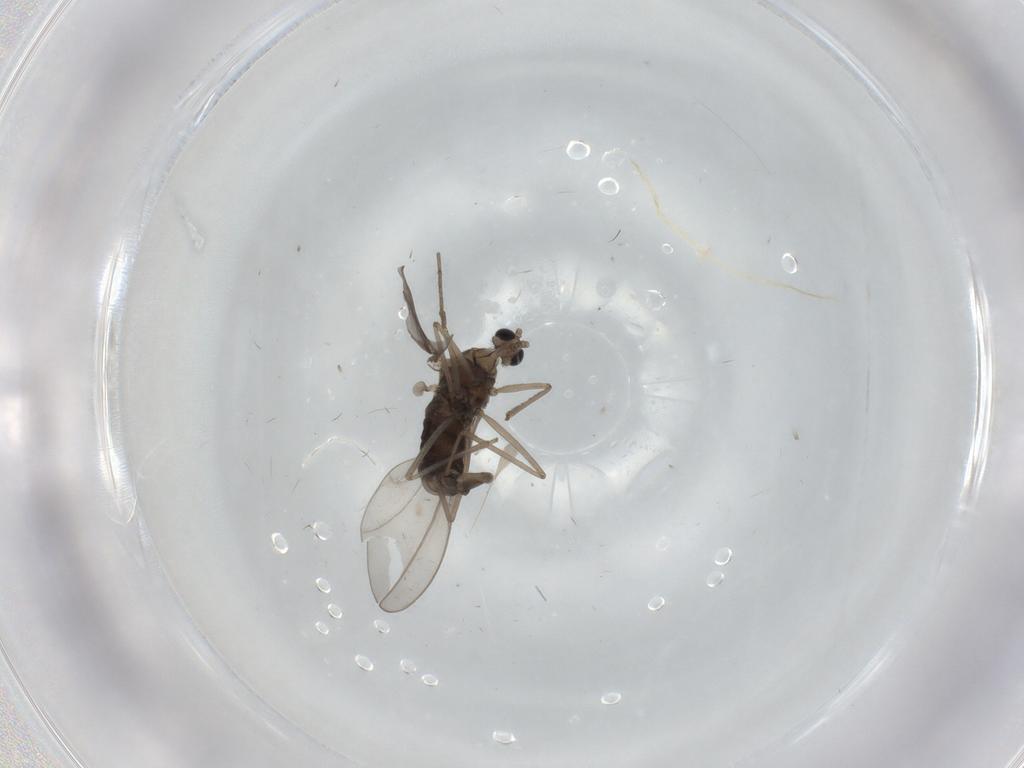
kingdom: Animalia
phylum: Arthropoda
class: Insecta
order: Diptera
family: Cecidomyiidae
